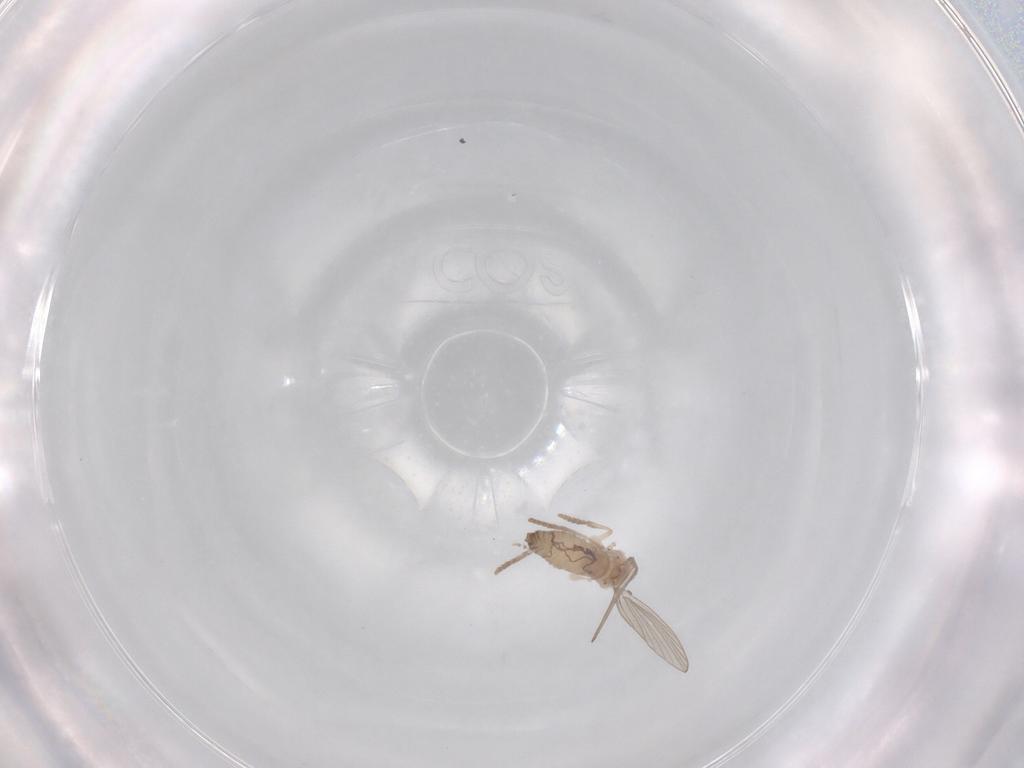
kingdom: Animalia
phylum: Arthropoda
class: Insecta
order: Diptera
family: Psychodidae
